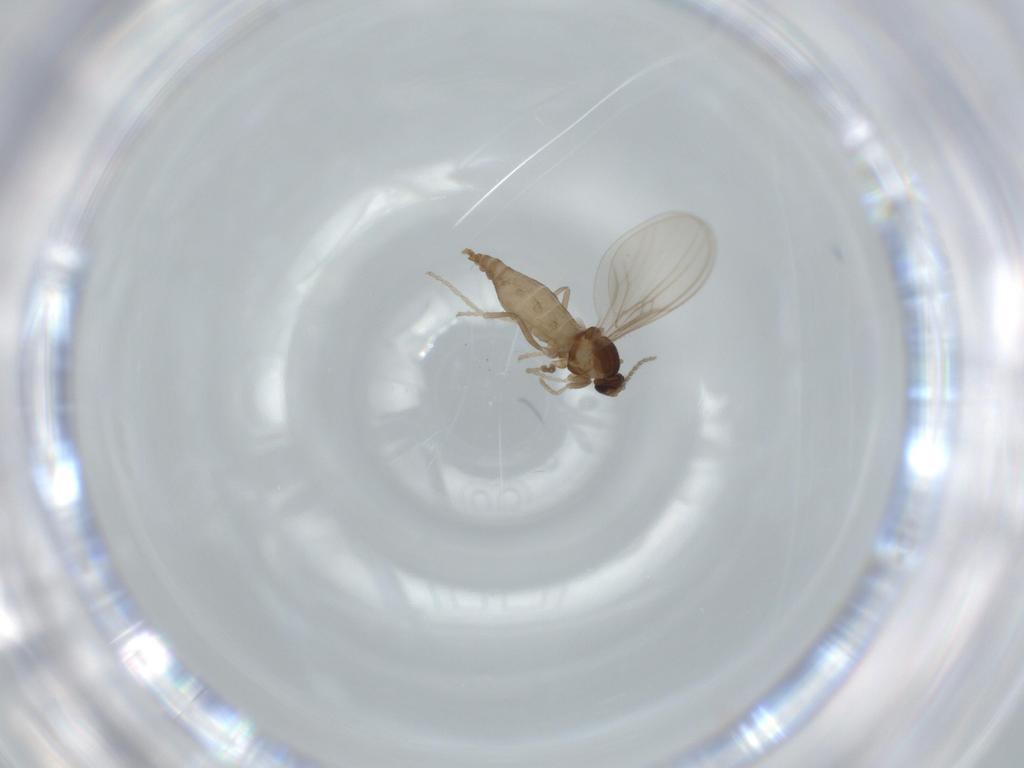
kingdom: Animalia
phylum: Arthropoda
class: Insecta
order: Diptera
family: Cecidomyiidae
